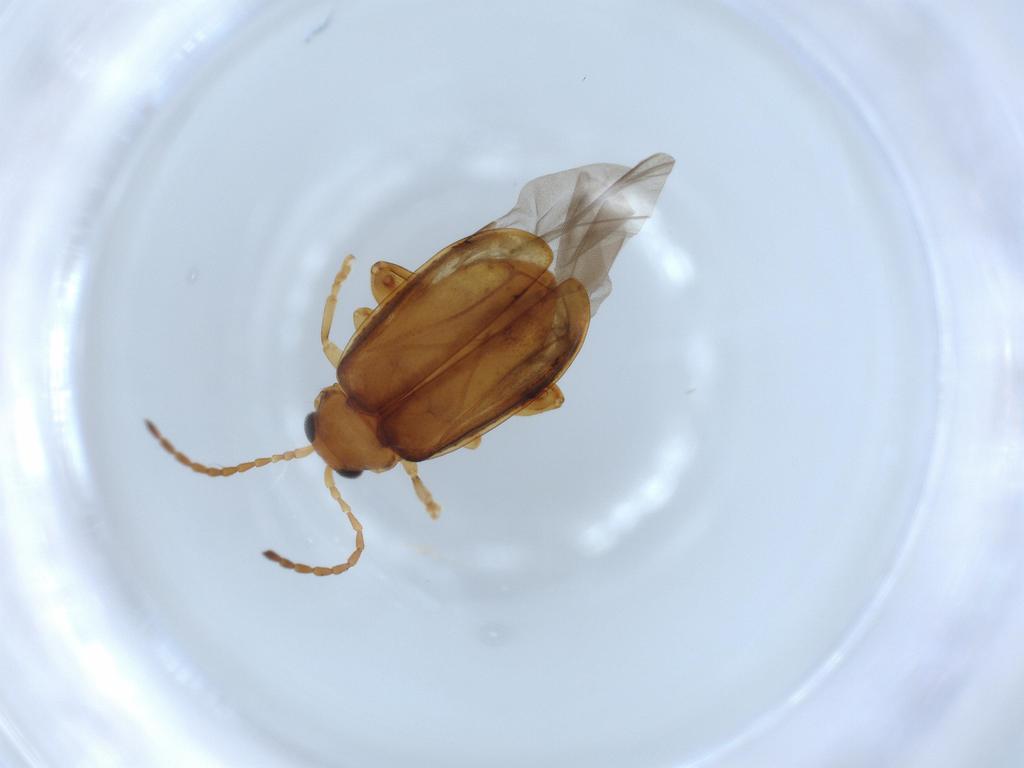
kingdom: Animalia
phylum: Arthropoda
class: Insecta
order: Coleoptera
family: Chrysomelidae
